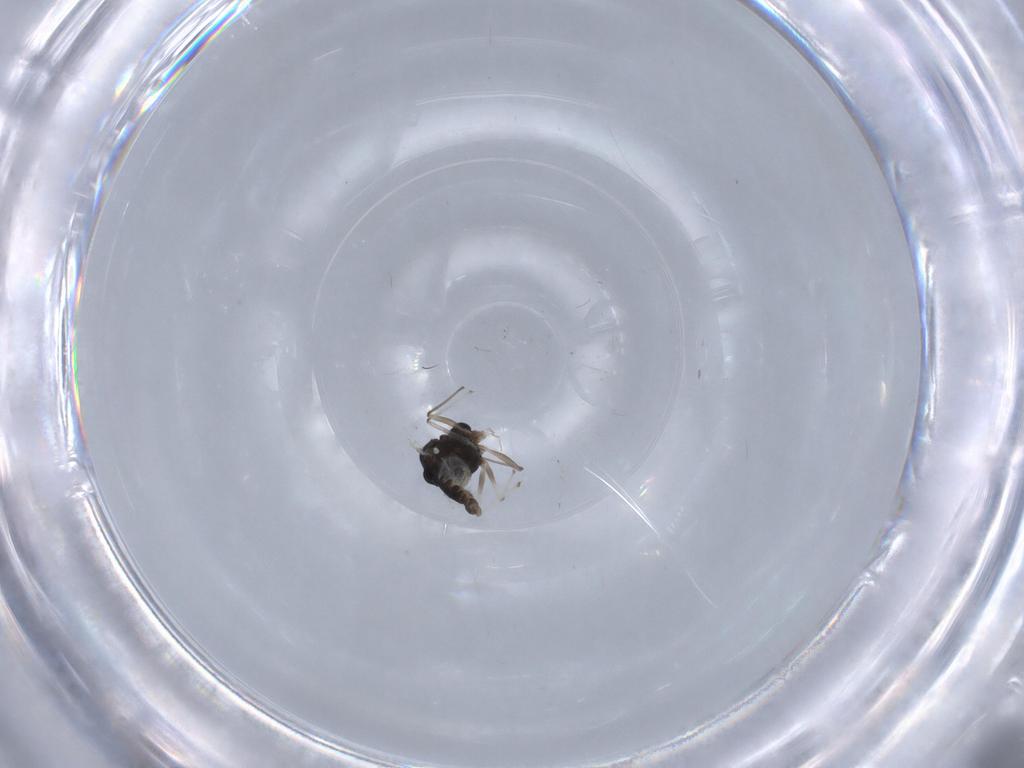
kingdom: Animalia
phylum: Arthropoda
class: Insecta
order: Diptera
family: Chironomidae
